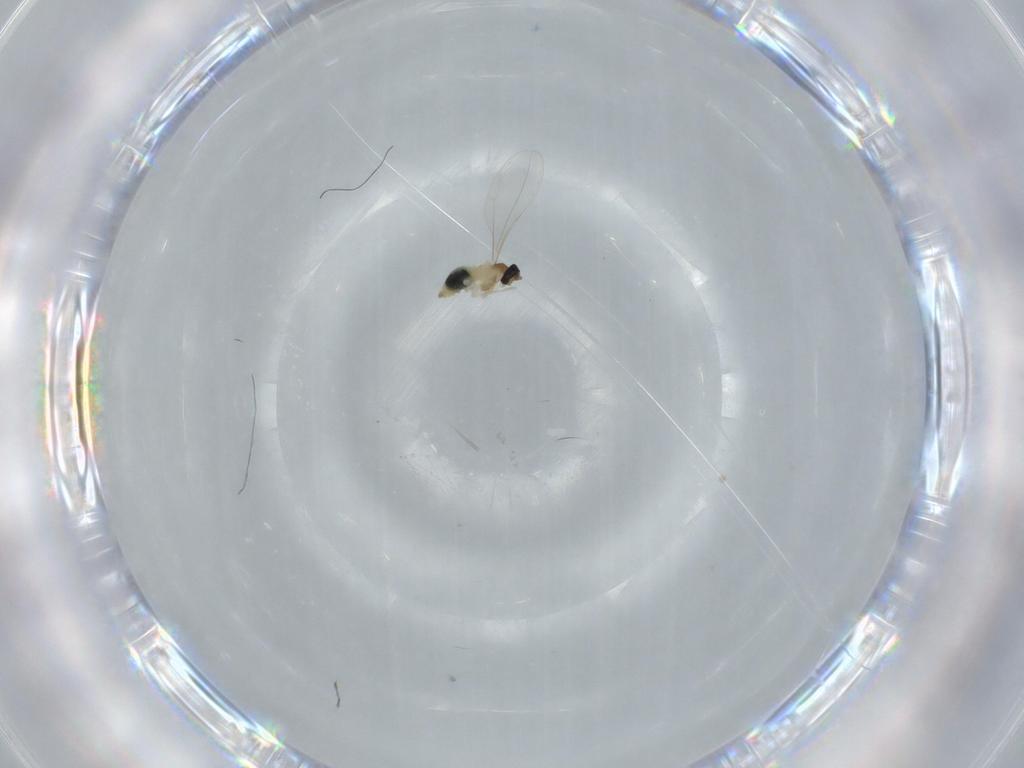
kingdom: Animalia
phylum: Arthropoda
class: Insecta
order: Diptera
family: Cecidomyiidae
